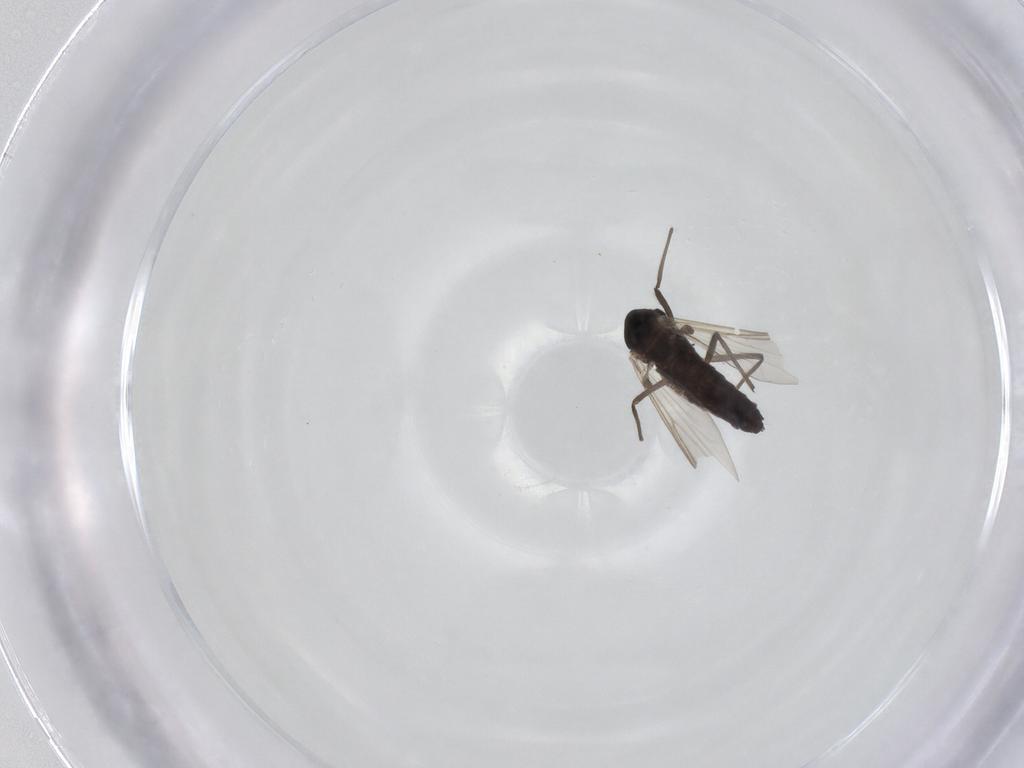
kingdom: Animalia
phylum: Arthropoda
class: Insecta
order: Diptera
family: Chironomidae
